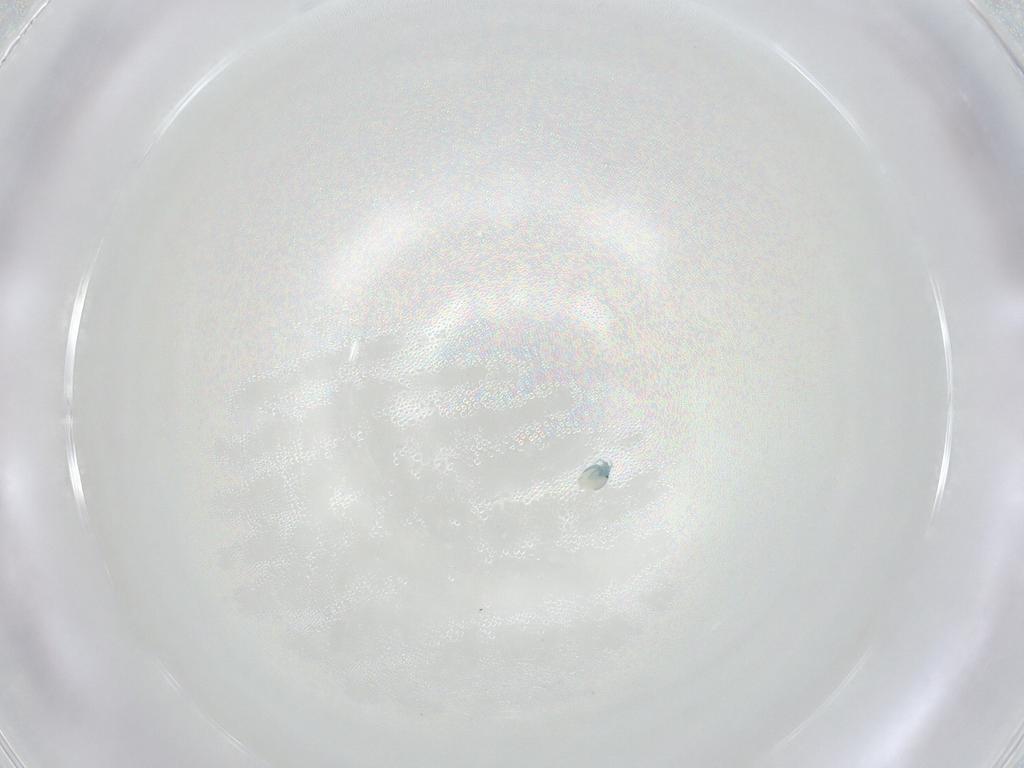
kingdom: Animalia
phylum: Arthropoda
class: Arachnida
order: Trombidiformes
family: Arrenuridae
